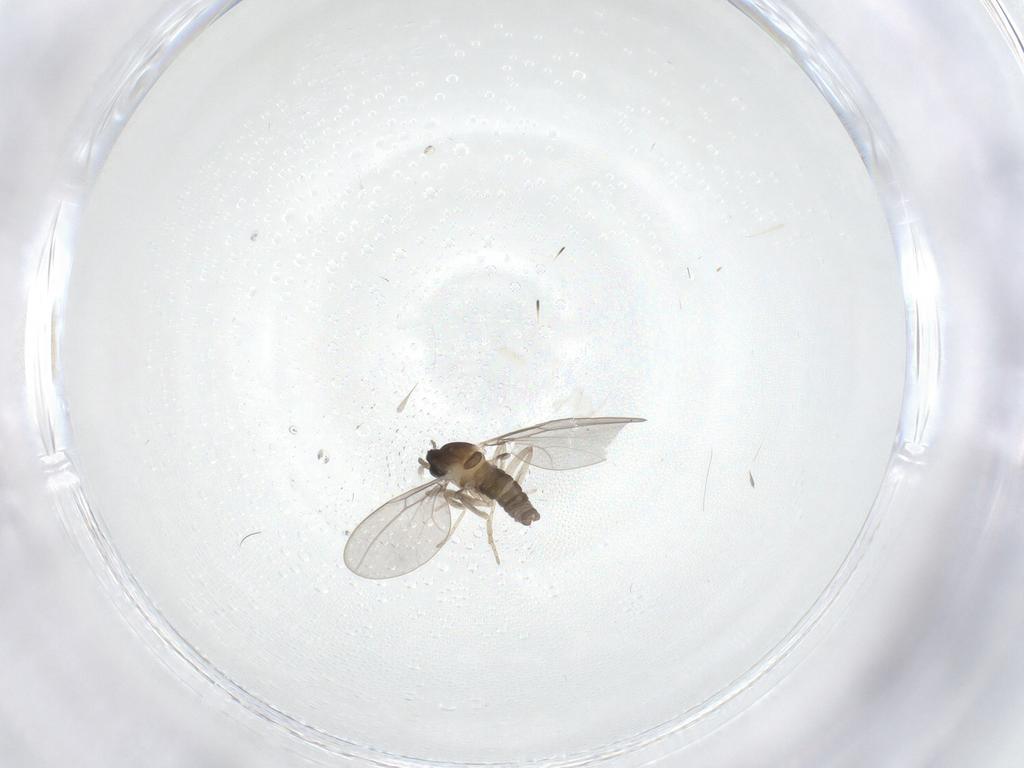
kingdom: Animalia
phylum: Arthropoda
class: Insecta
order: Diptera
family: Cecidomyiidae
